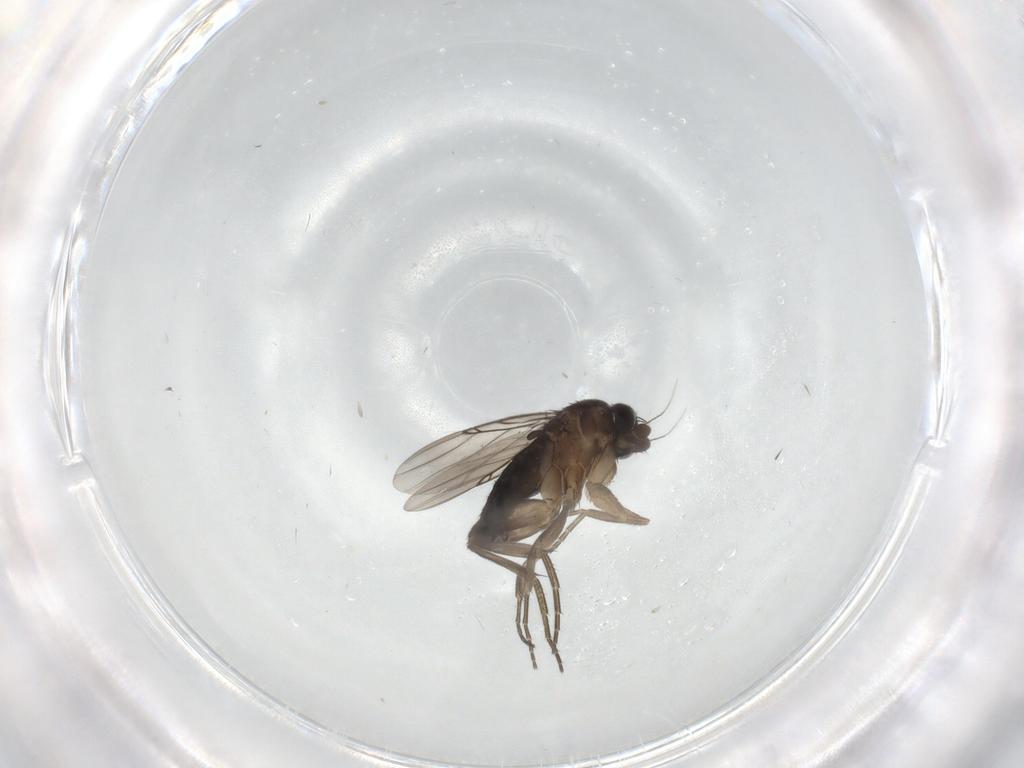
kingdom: Animalia
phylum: Arthropoda
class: Insecta
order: Diptera
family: Phoridae
